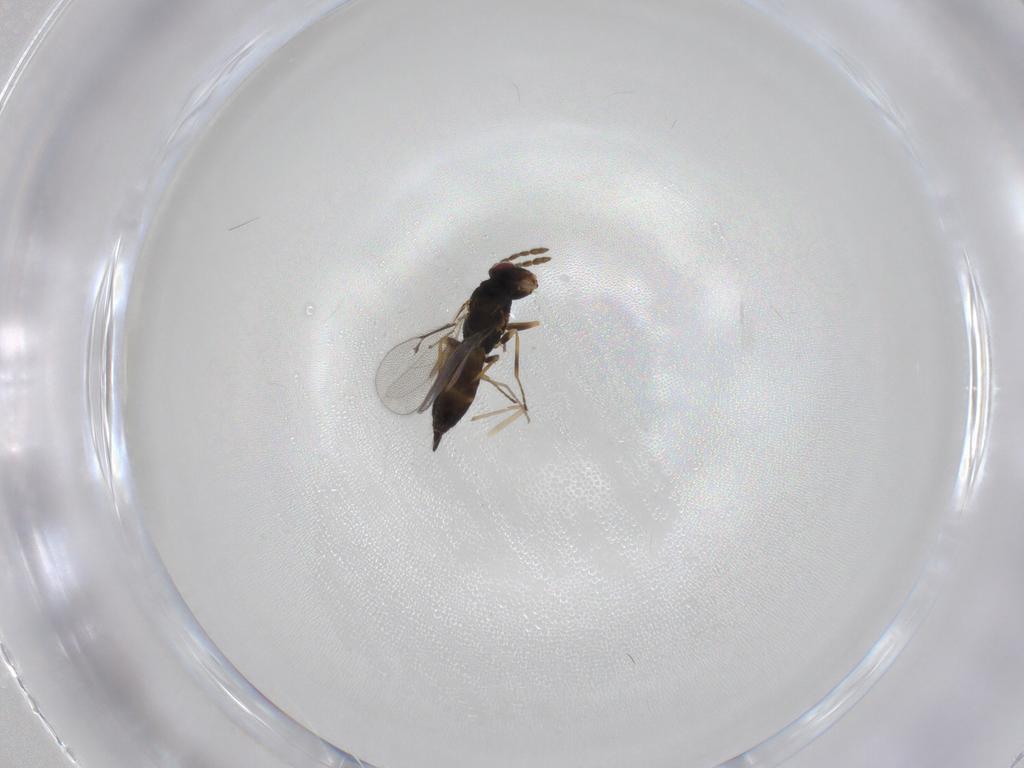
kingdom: Animalia
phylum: Arthropoda
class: Insecta
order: Hymenoptera
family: Eulophidae
